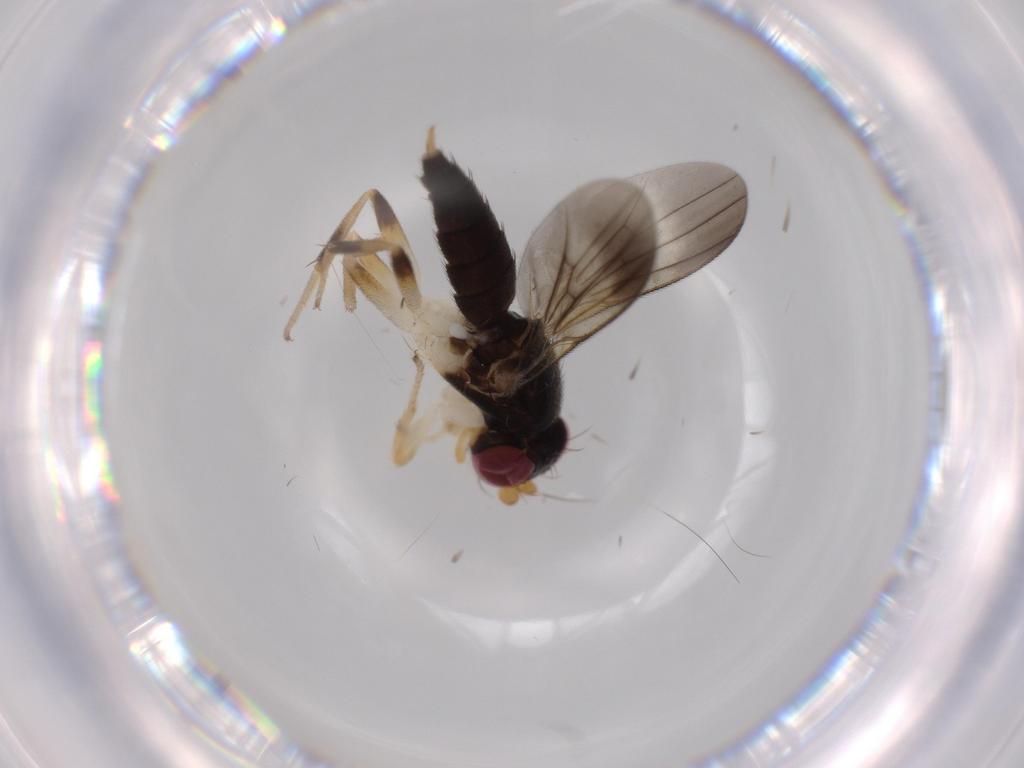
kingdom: Animalia
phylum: Arthropoda
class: Insecta
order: Diptera
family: Clusiidae
